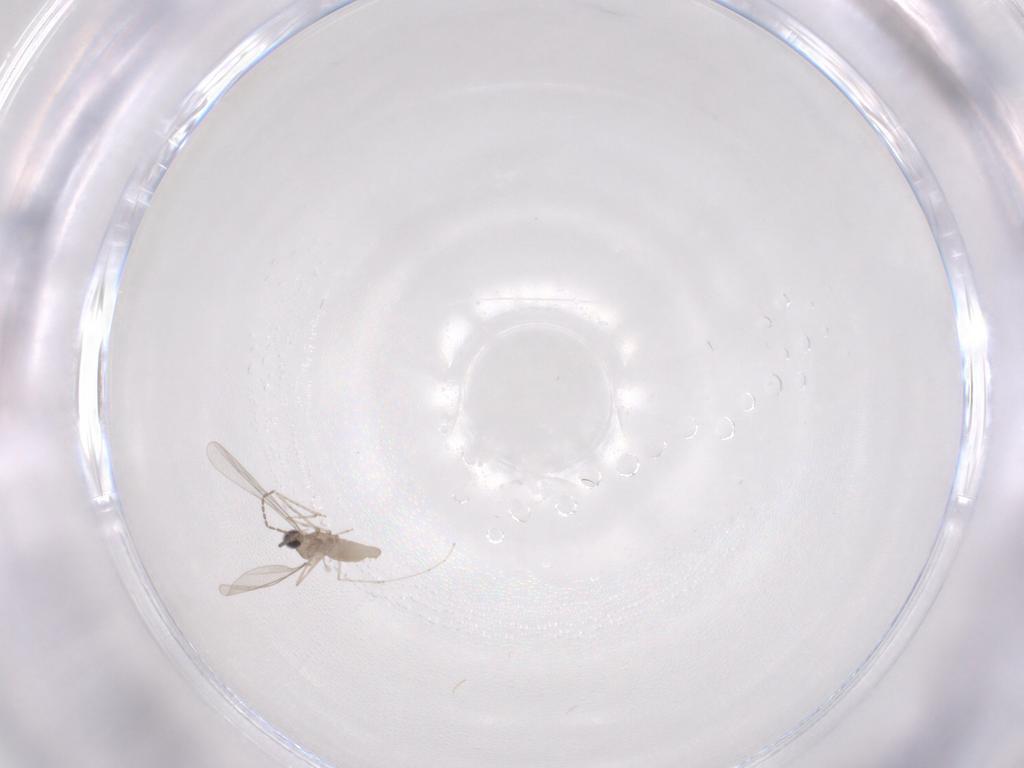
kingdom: Animalia
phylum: Arthropoda
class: Insecta
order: Diptera
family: Cecidomyiidae
